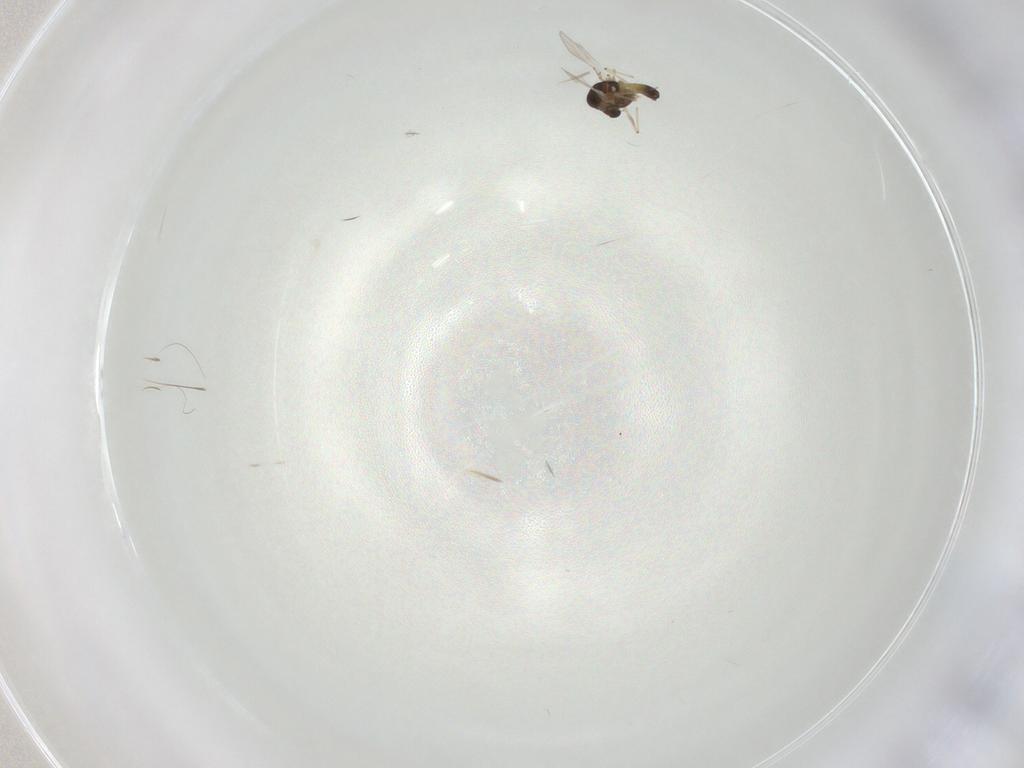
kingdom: Animalia
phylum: Arthropoda
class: Insecta
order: Diptera
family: Chironomidae
